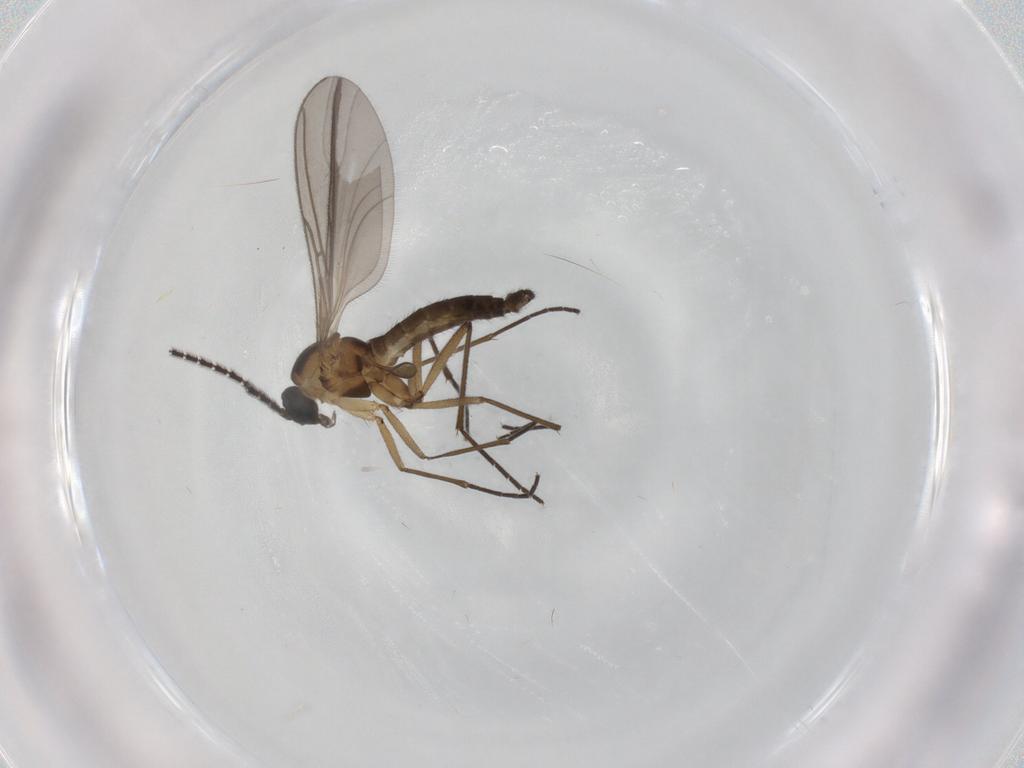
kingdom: Animalia
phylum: Arthropoda
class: Insecta
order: Diptera
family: Sciaridae
